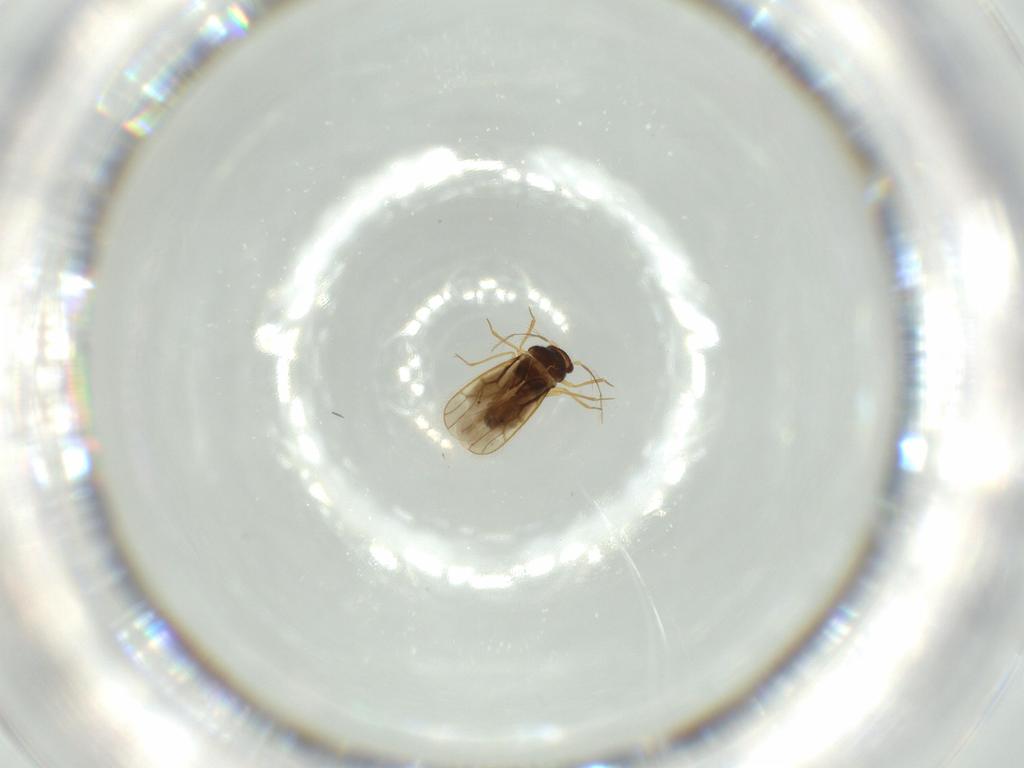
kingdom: Animalia
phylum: Arthropoda
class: Insecta
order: Hemiptera
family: Schizopteridae
